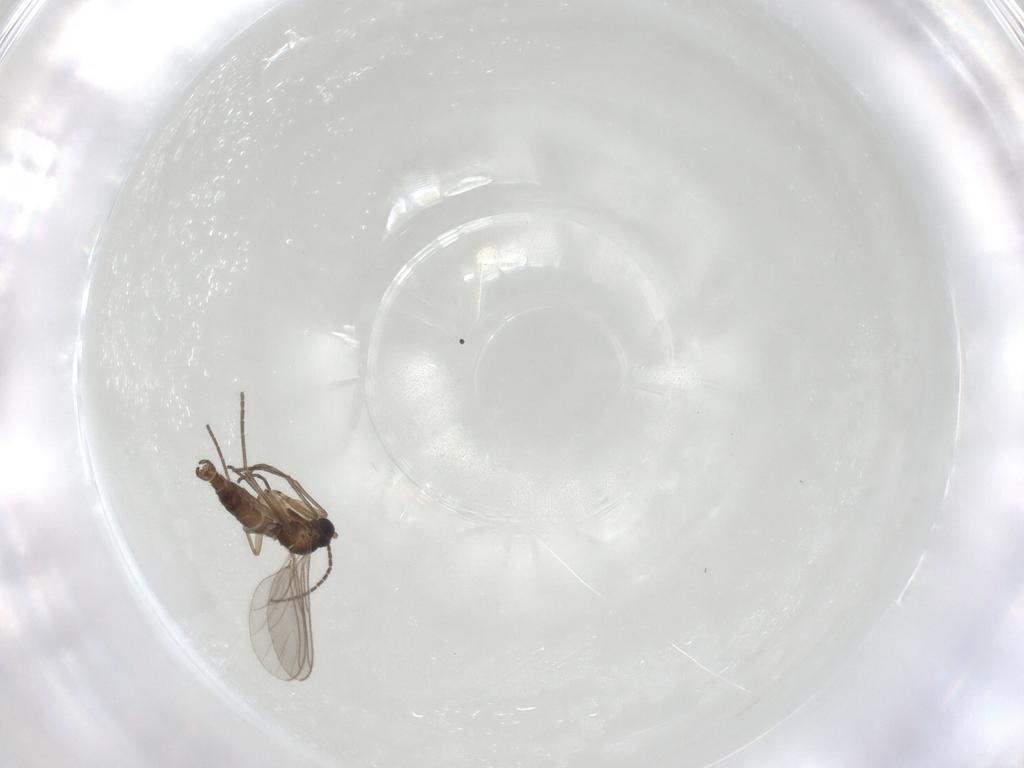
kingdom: Animalia
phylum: Arthropoda
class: Insecta
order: Diptera
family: Sciaridae
